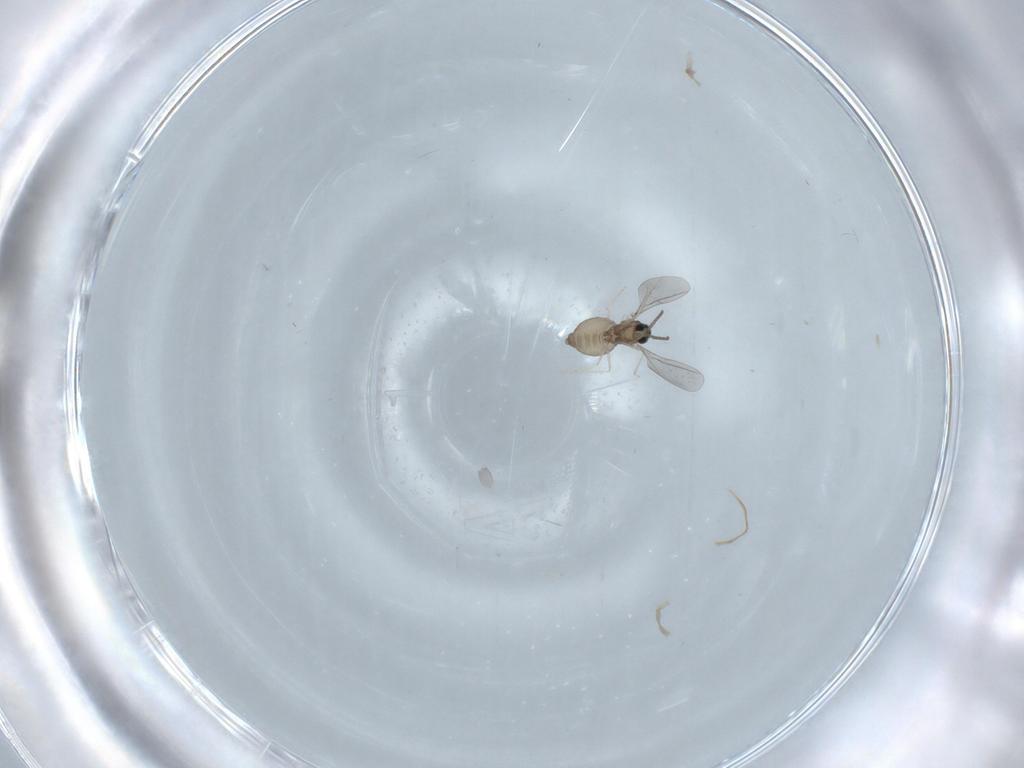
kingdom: Animalia
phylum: Arthropoda
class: Insecta
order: Diptera
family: Cecidomyiidae
